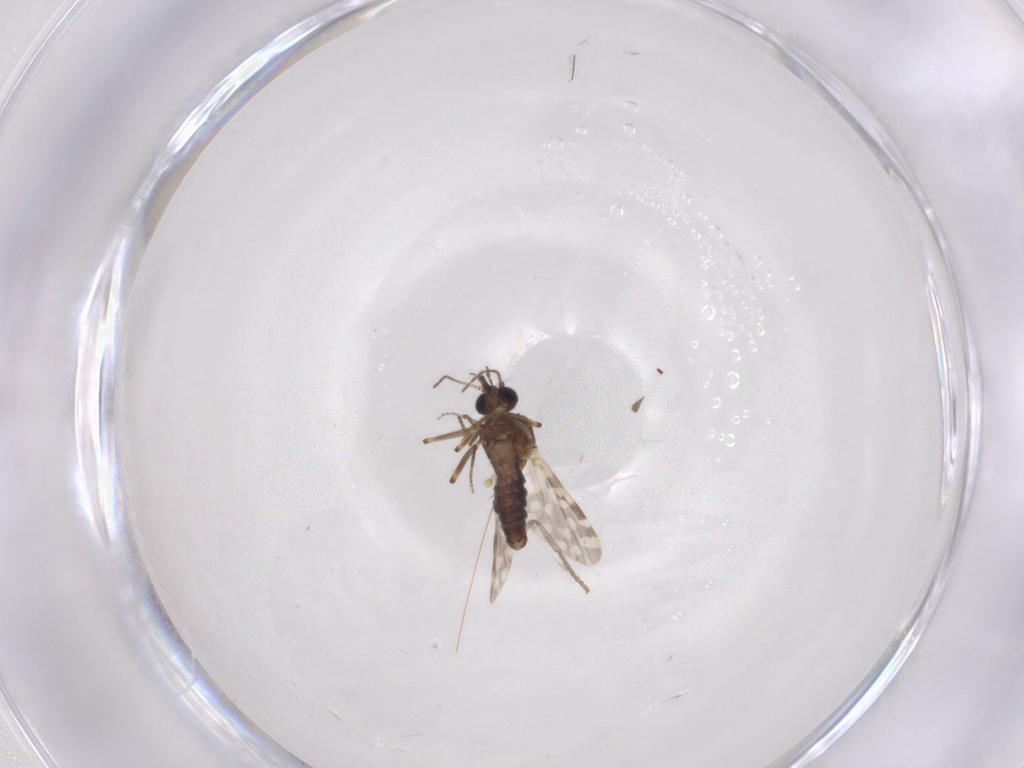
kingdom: Animalia
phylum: Arthropoda
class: Insecta
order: Diptera
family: Psychodidae
